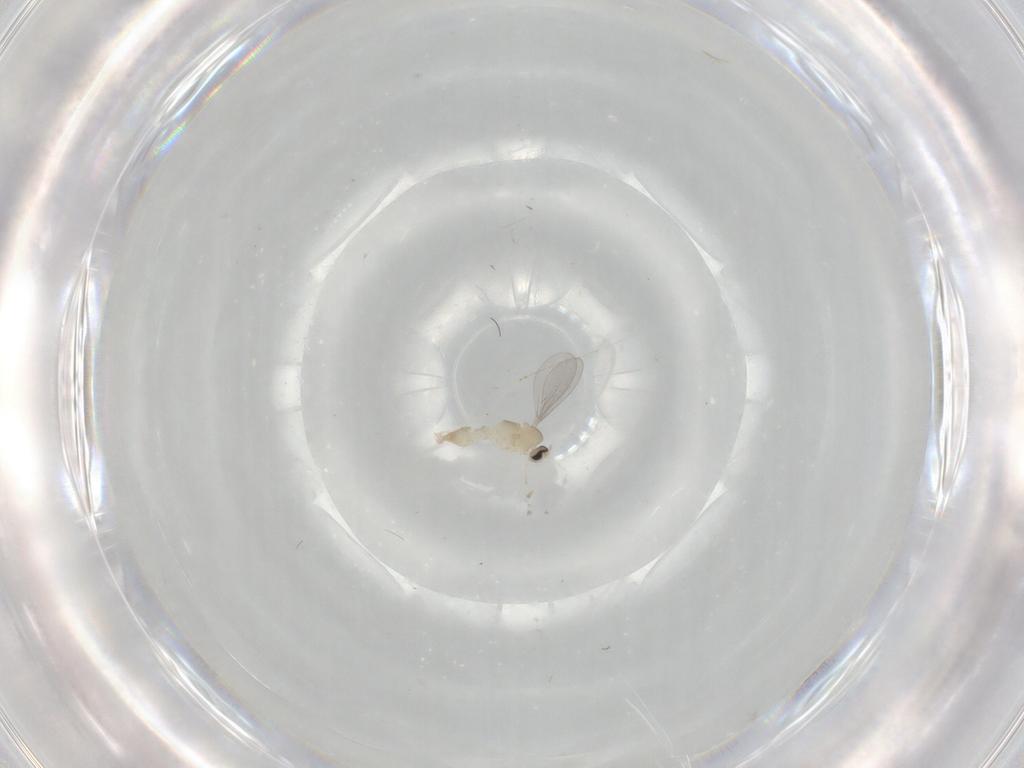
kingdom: Animalia
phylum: Arthropoda
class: Insecta
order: Diptera
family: Cecidomyiidae
